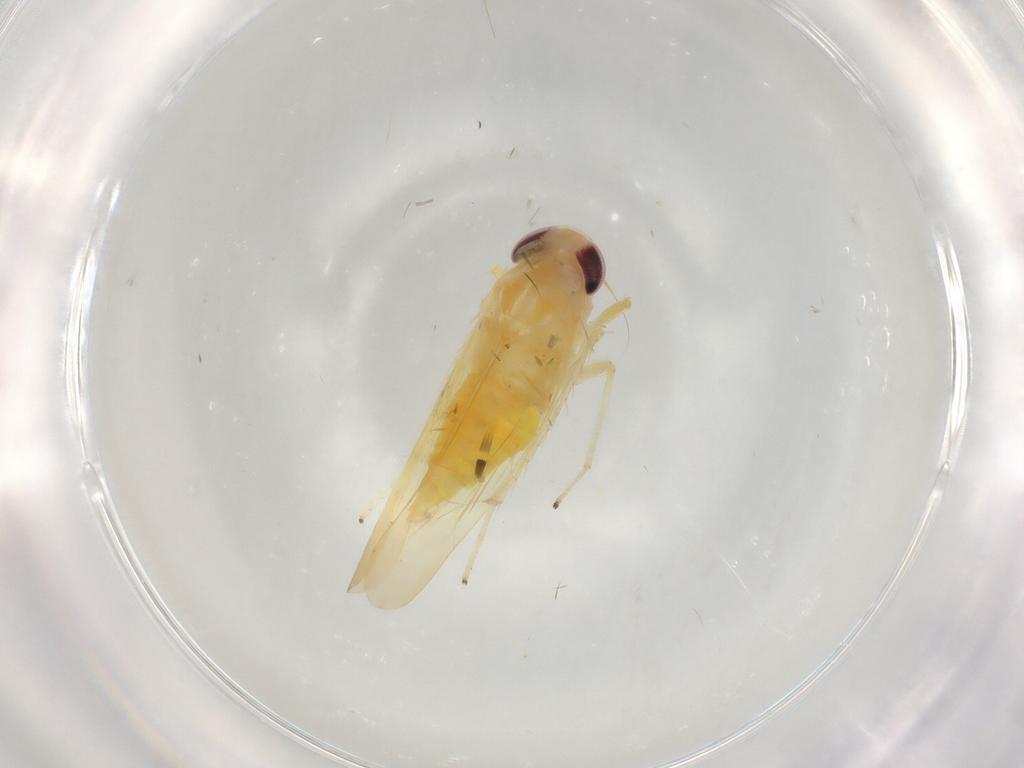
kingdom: Animalia
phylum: Arthropoda
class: Insecta
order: Hemiptera
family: Cicadellidae
